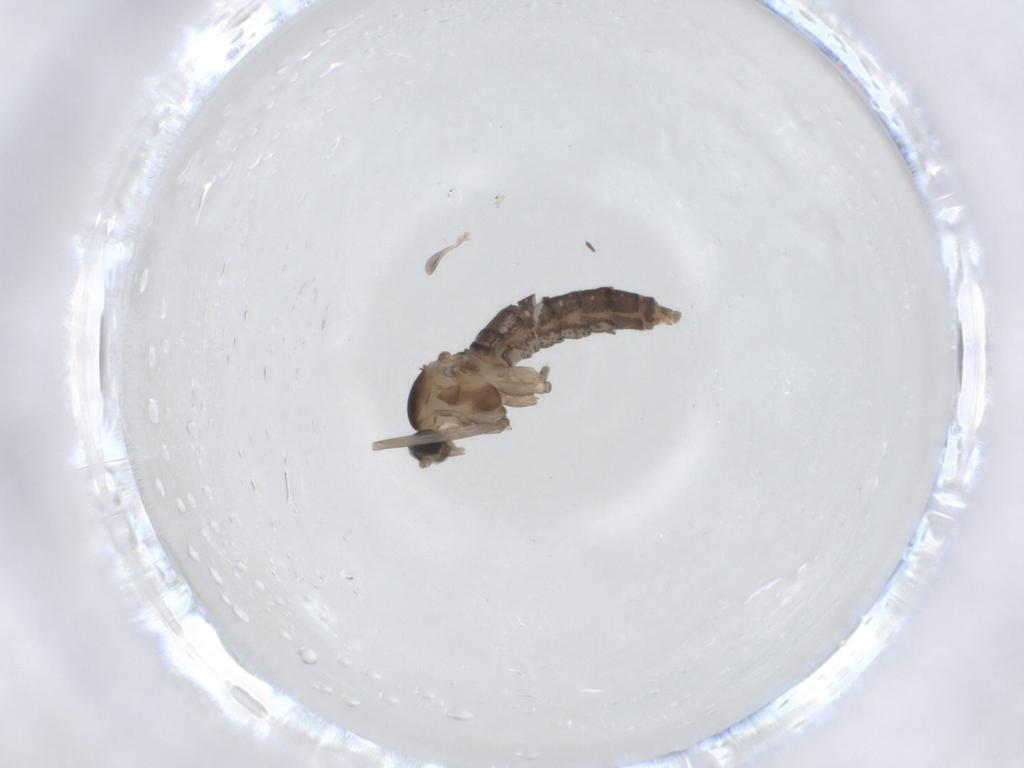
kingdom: Animalia
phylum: Arthropoda
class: Insecta
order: Diptera
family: Cecidomyiidae
